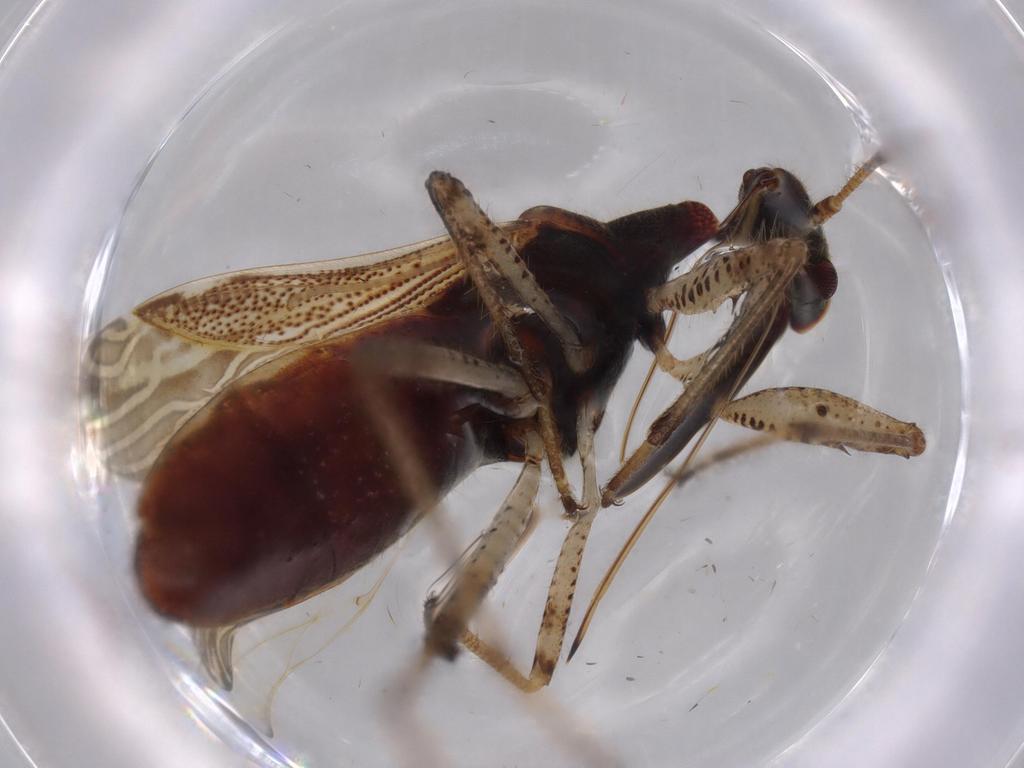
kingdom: Animalia
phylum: Arthropoda
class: Insecta
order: Hemiptera
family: Rhyparochromidae
